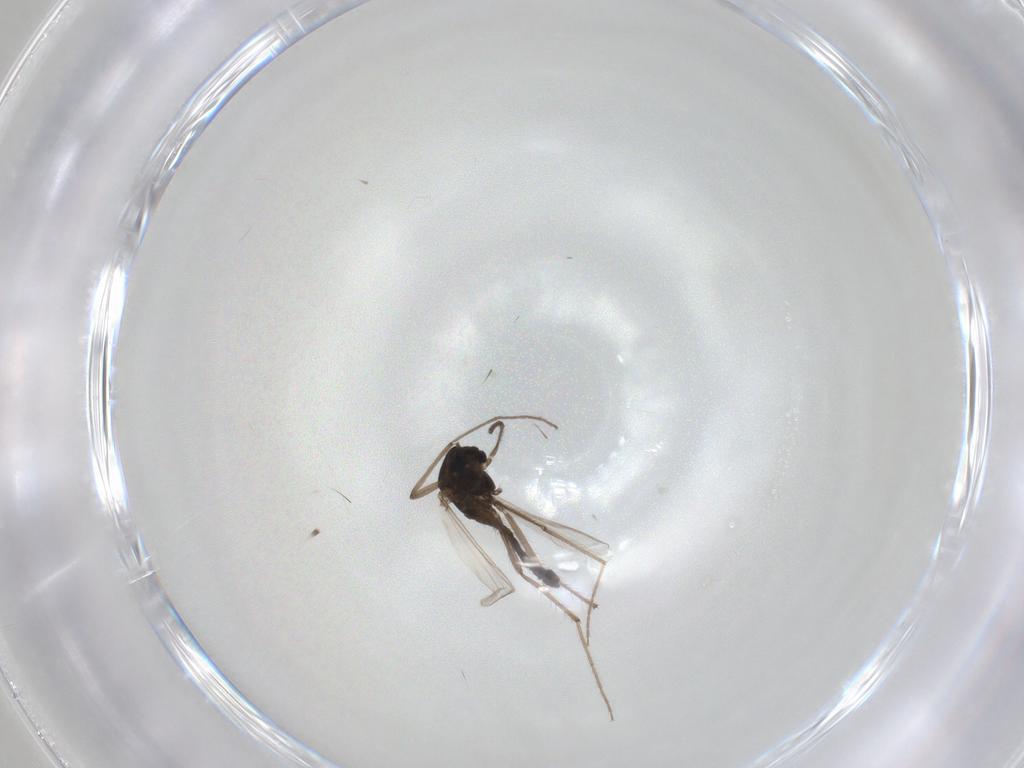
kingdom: Animalia
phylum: Arthropoda
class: Insecta
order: Diptera
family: Chironomidae
